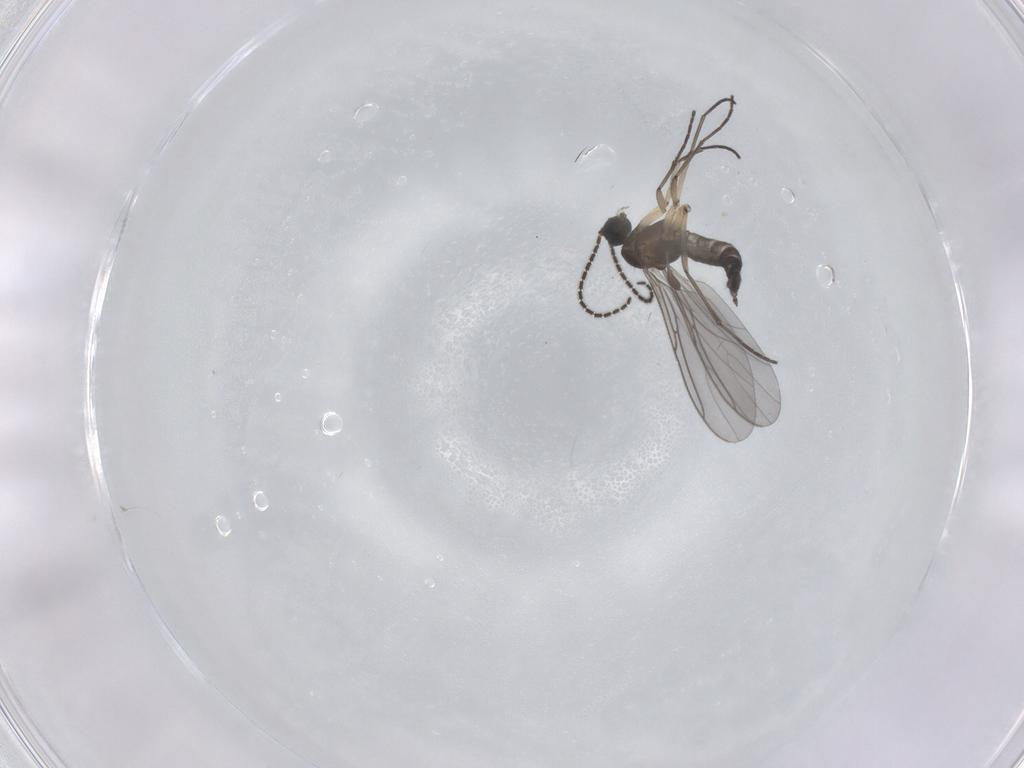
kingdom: Animalia
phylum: Arthropoda
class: Insecta
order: Diptera
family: Sciaridae
